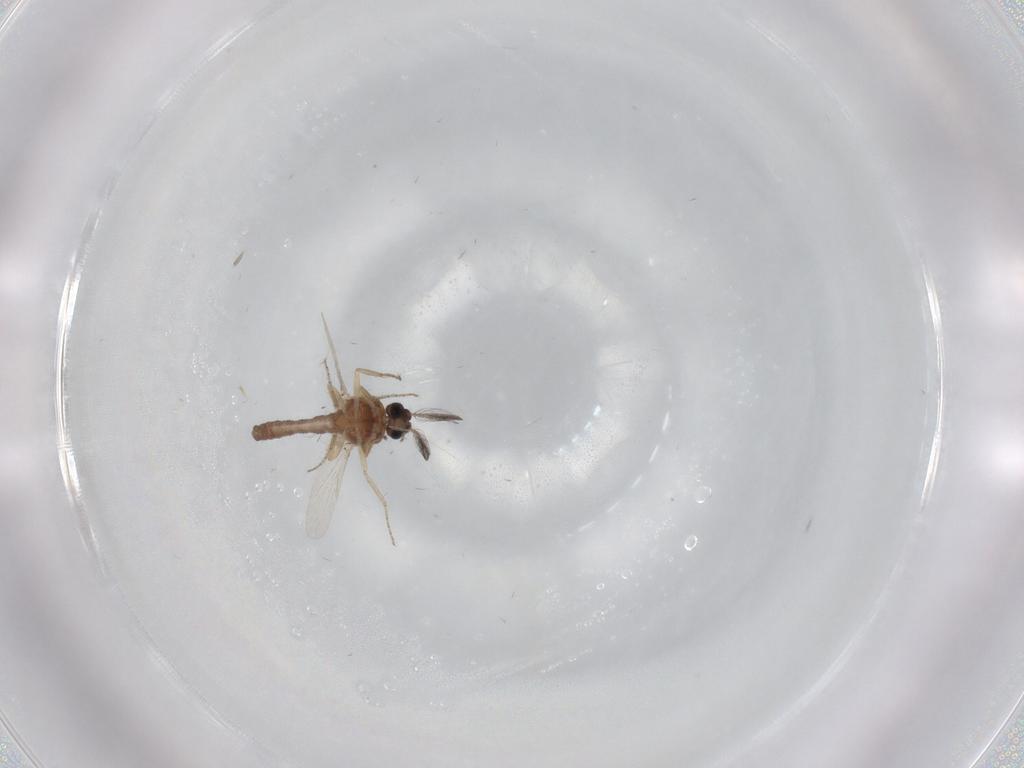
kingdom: Animalia
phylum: Arthropoda
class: Insecta
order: Diptera
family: Ceratopogonidae
